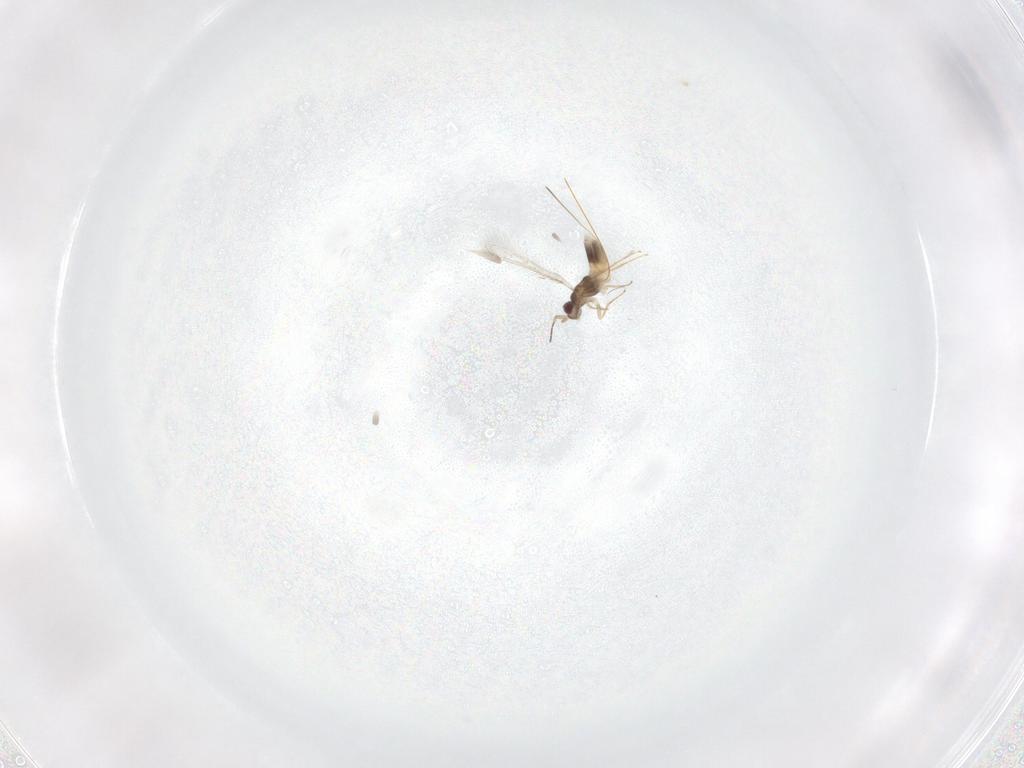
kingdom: Animalia
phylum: Arthropoda
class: Insecta
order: Hymenoptera
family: Mymaridae
